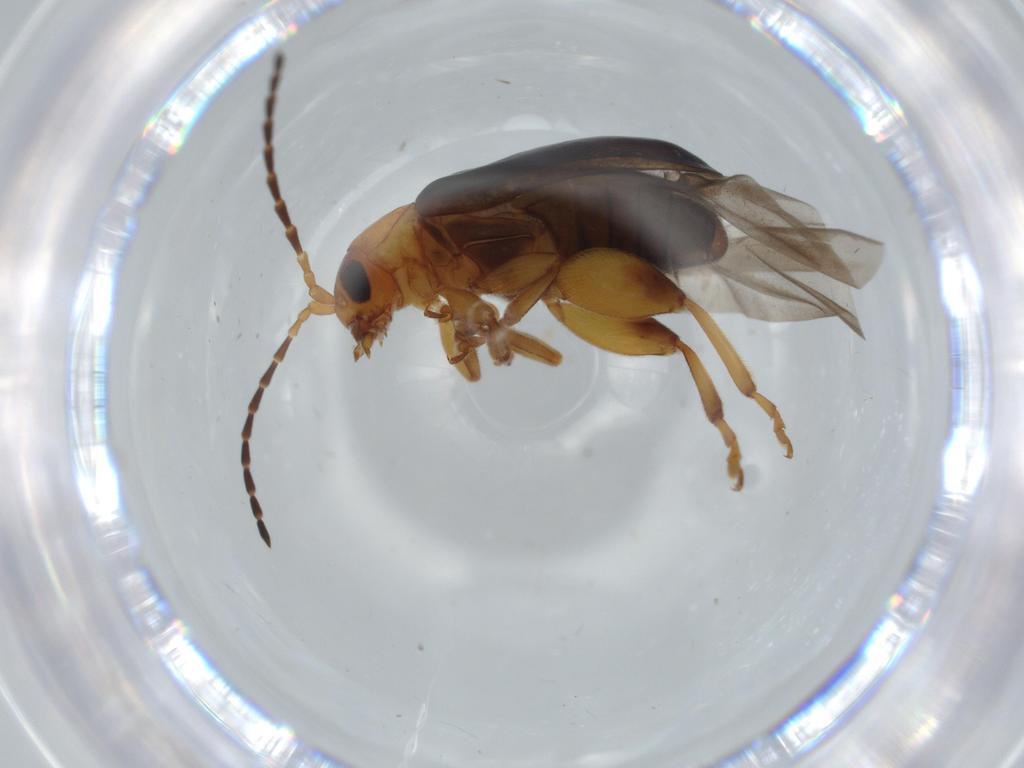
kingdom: Animalia
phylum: Arthropoda
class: Insecta
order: Coleoptera
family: Chrysomelidae
